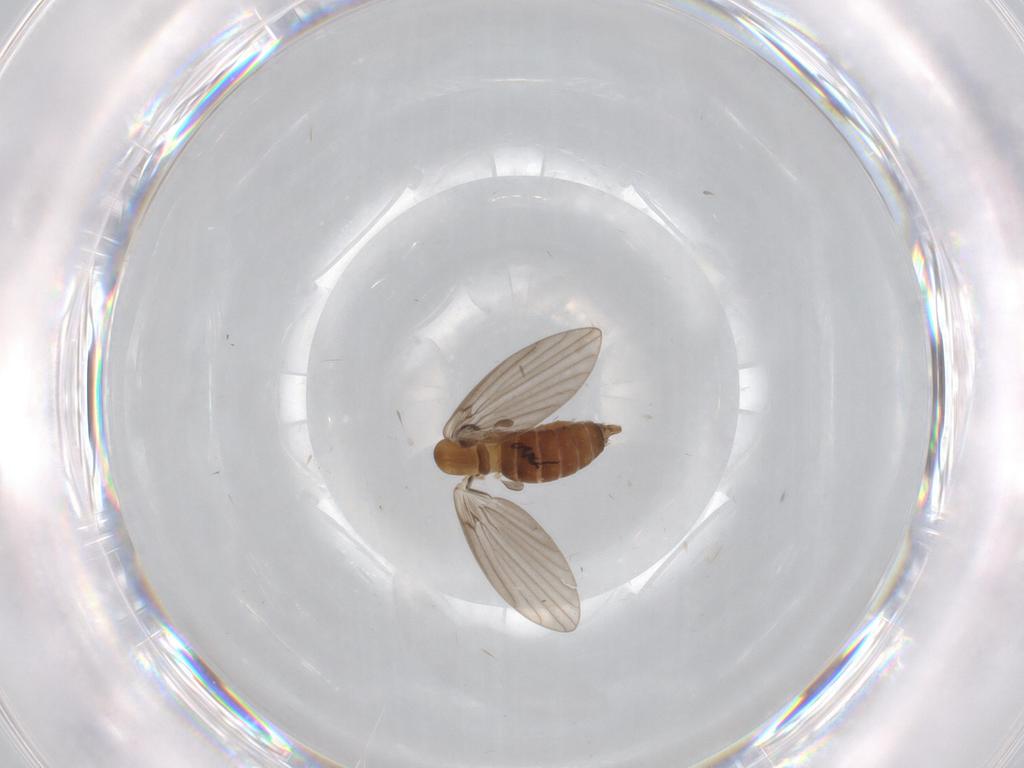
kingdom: Animalia
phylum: Arthropoda
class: Insecta
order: Diptera
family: Sciaridae
